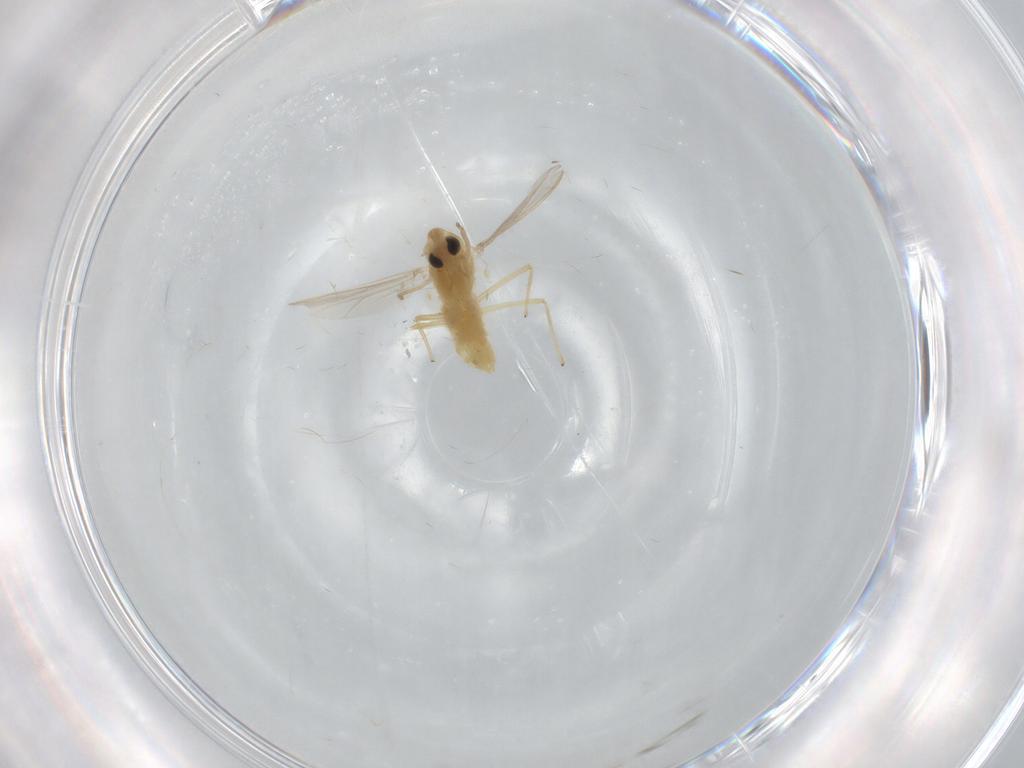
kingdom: Animalia
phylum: Arthropoda
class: Insecta
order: Diptera
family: Chironomidae
